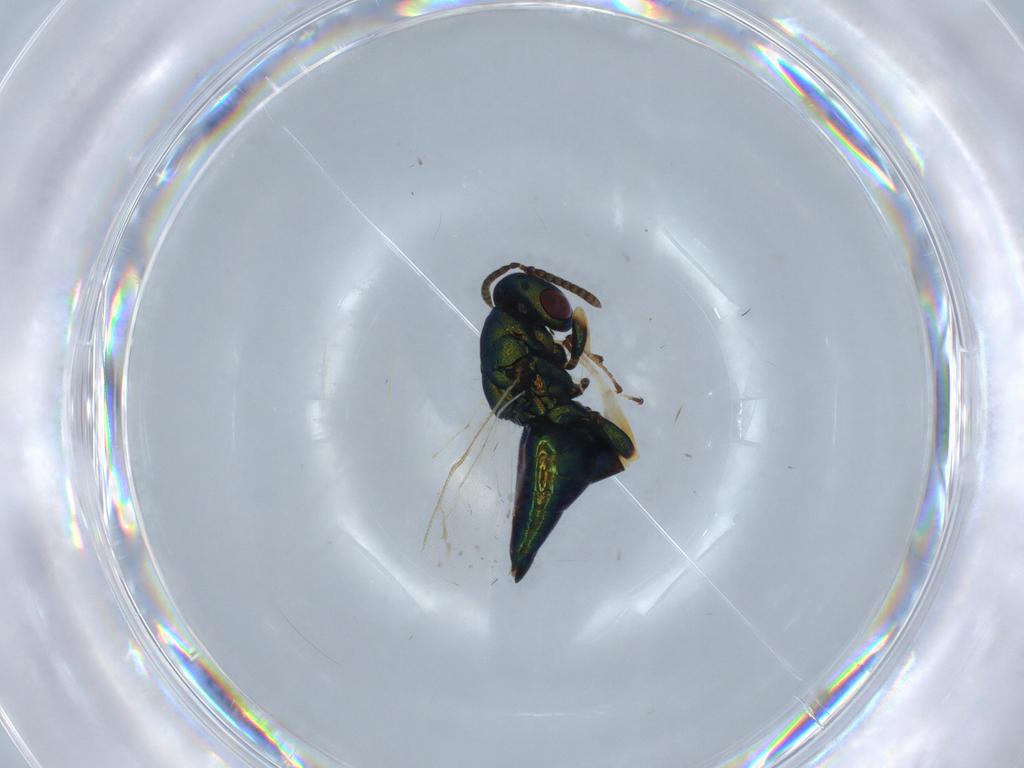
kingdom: Animalia
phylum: Arthropoda
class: Insecta
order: Hymenoptera
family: Pteromalidae
